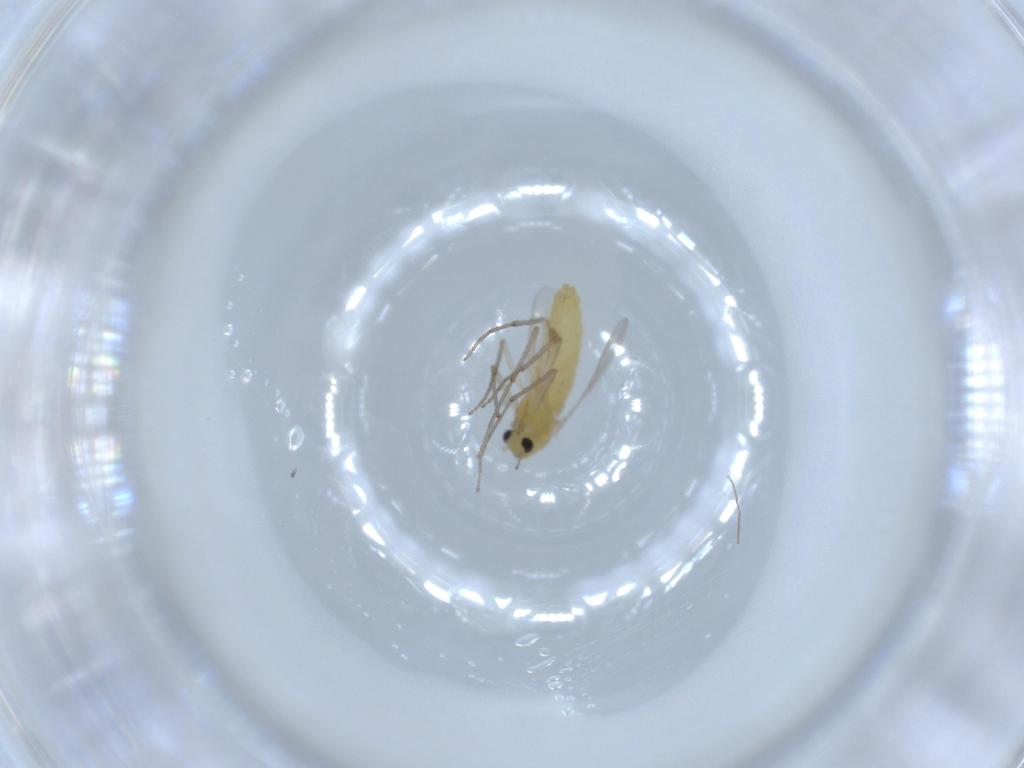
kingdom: Animalia
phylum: Arthropoda
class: Insecta
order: Diptera
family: Chironomidae
